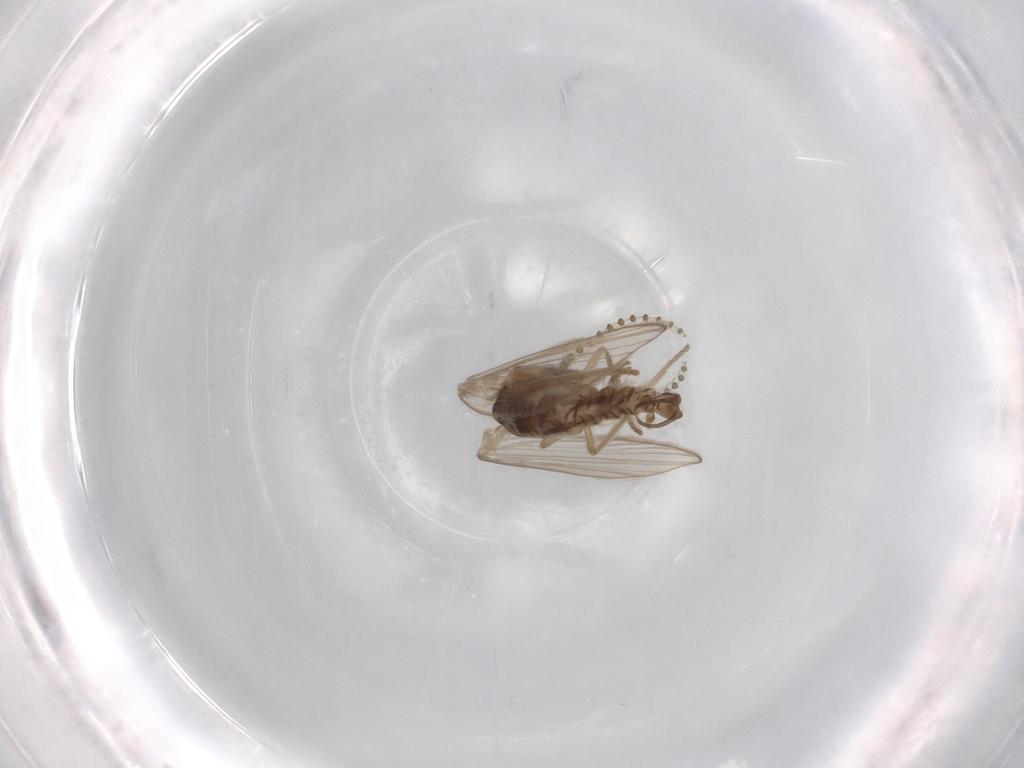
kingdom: Animalia
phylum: Arthropoda
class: Insecta
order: Diptera
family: Psychodidae
